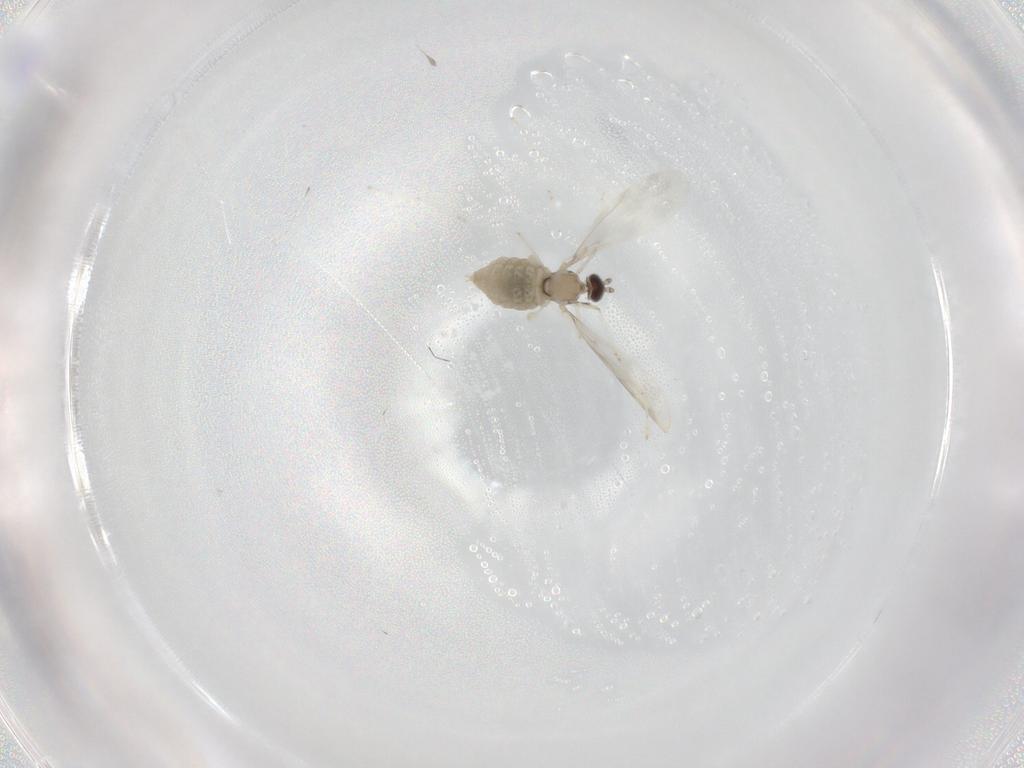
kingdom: Animalia
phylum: Arthropoda
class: Insecta
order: Diptera
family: Cecidomyiidae
